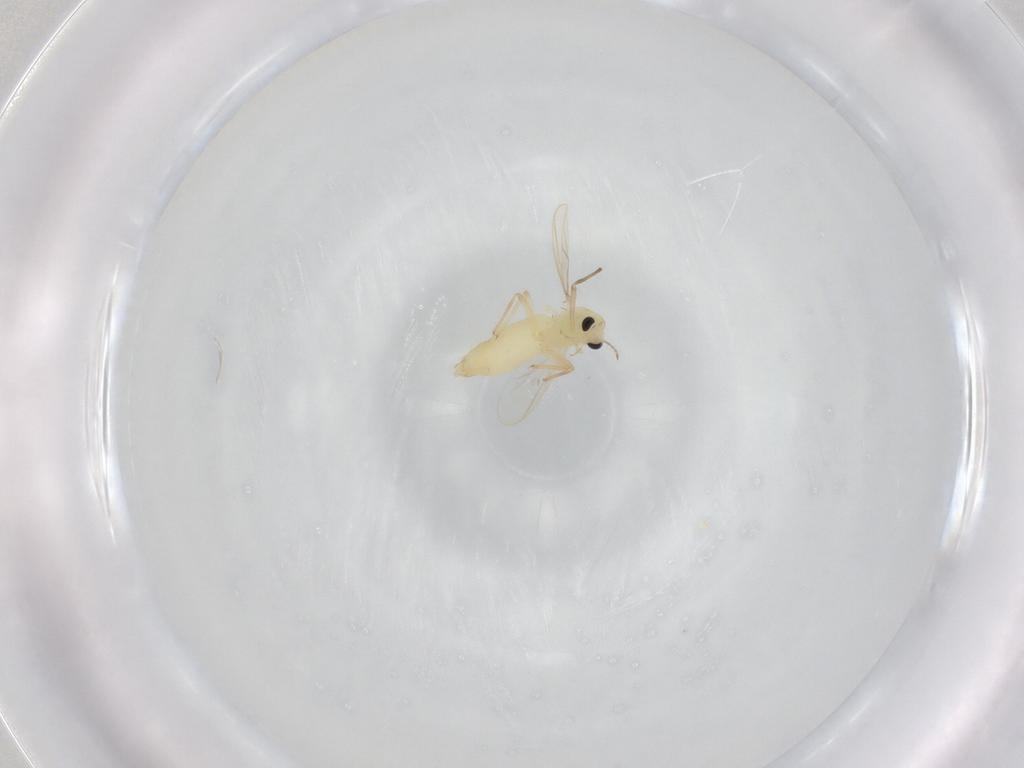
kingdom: Animalia
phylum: Arthropoda
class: Insecta
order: Diptera
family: Chironomidae
